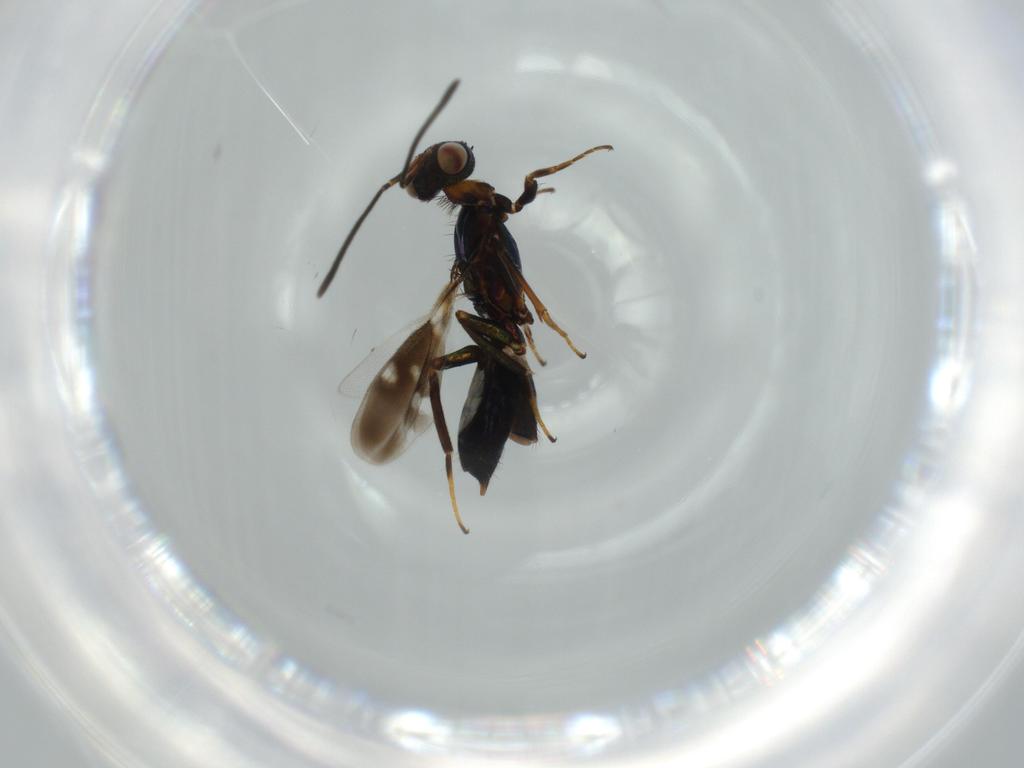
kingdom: Animalia
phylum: Arthropoda
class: Insecta
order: Hymenoptera
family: Eupelmidae
